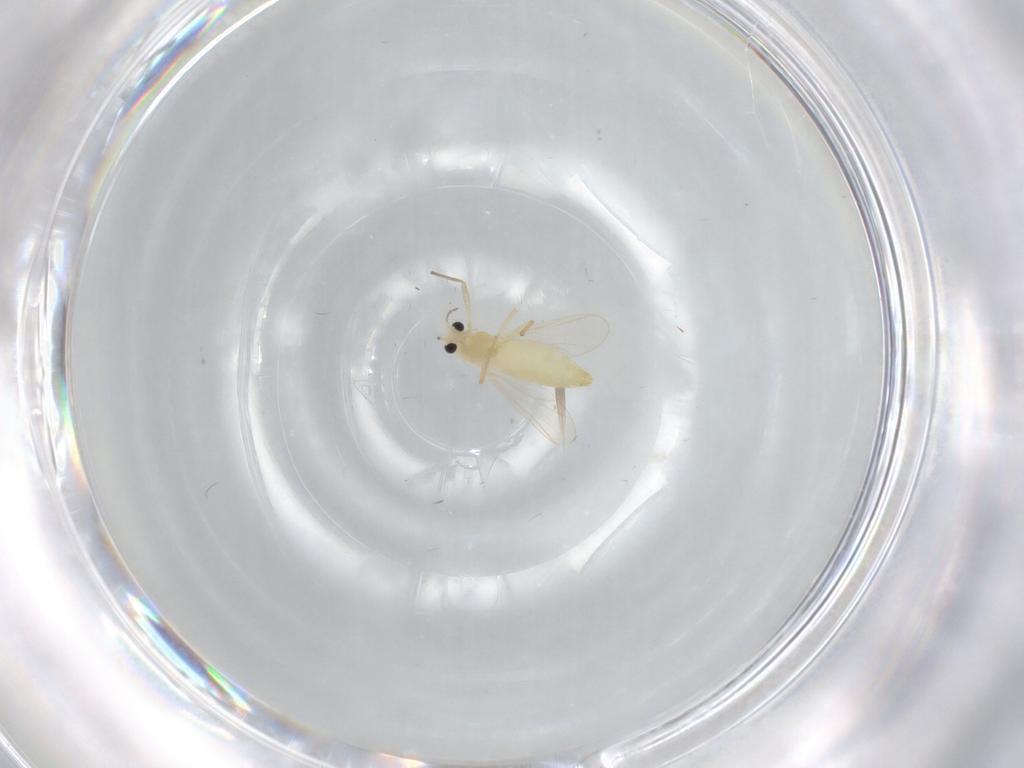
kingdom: Animalia
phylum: Arthropoda
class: Insecta
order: Diptera
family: Chironomidae
